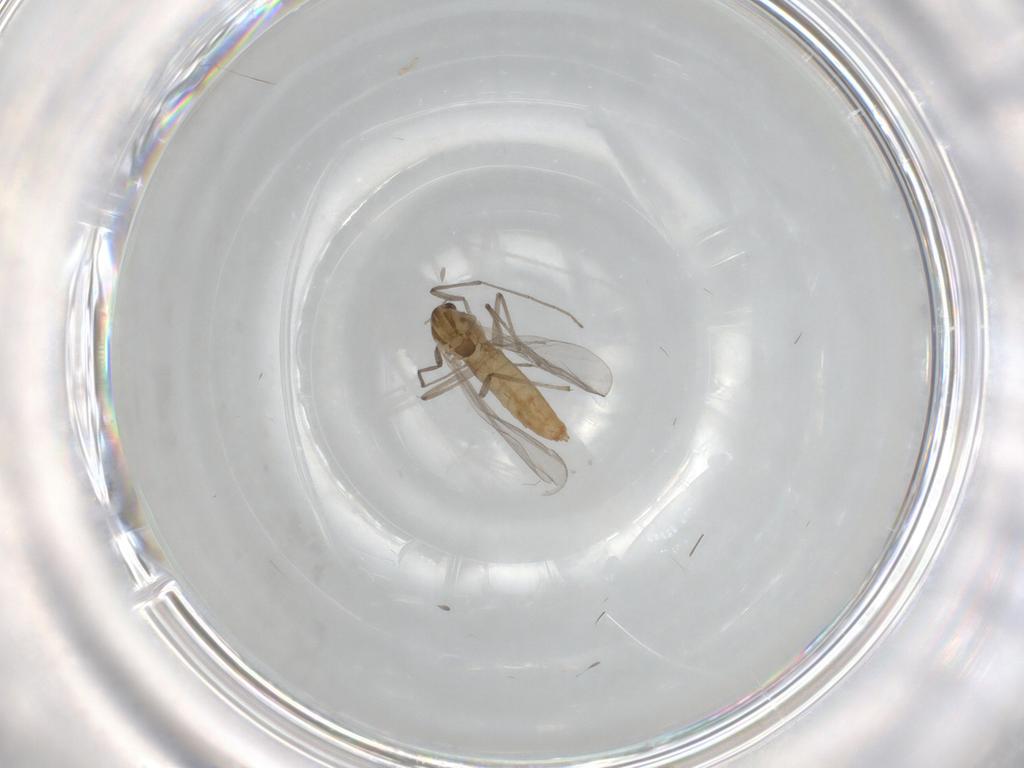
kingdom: Animalia
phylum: Arthropoda
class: Insecta
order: Diptera
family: Chironomidae
